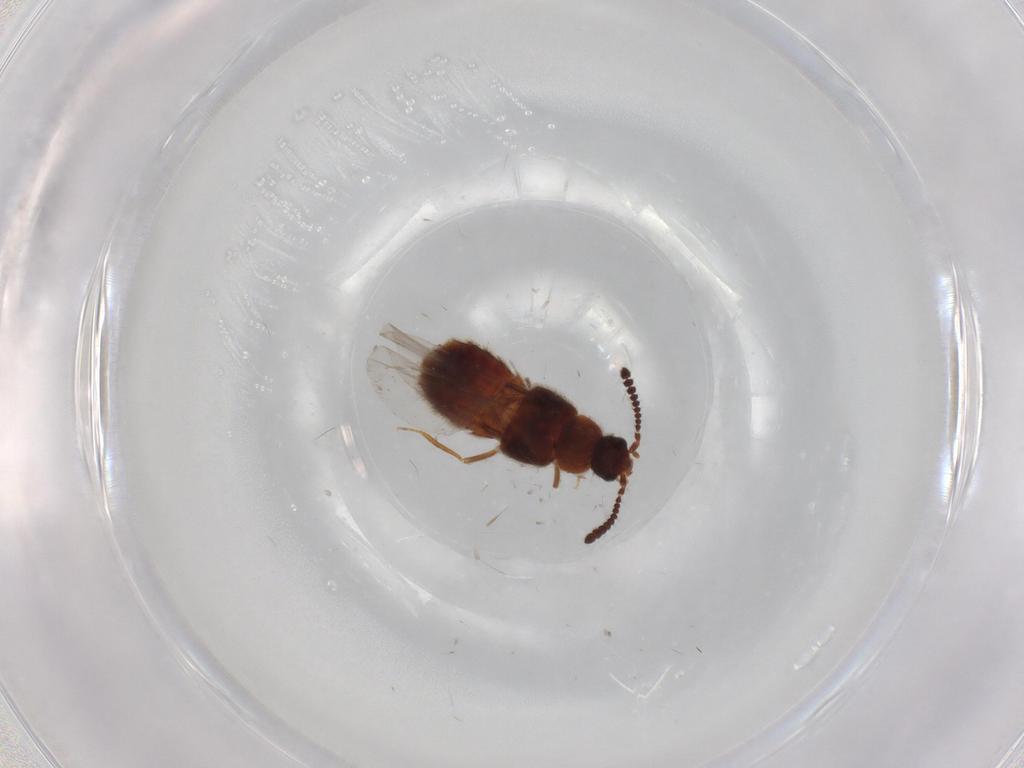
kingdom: Animalia
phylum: Arthropoda
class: Insecta
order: Coleoptera
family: Staphylinidae
